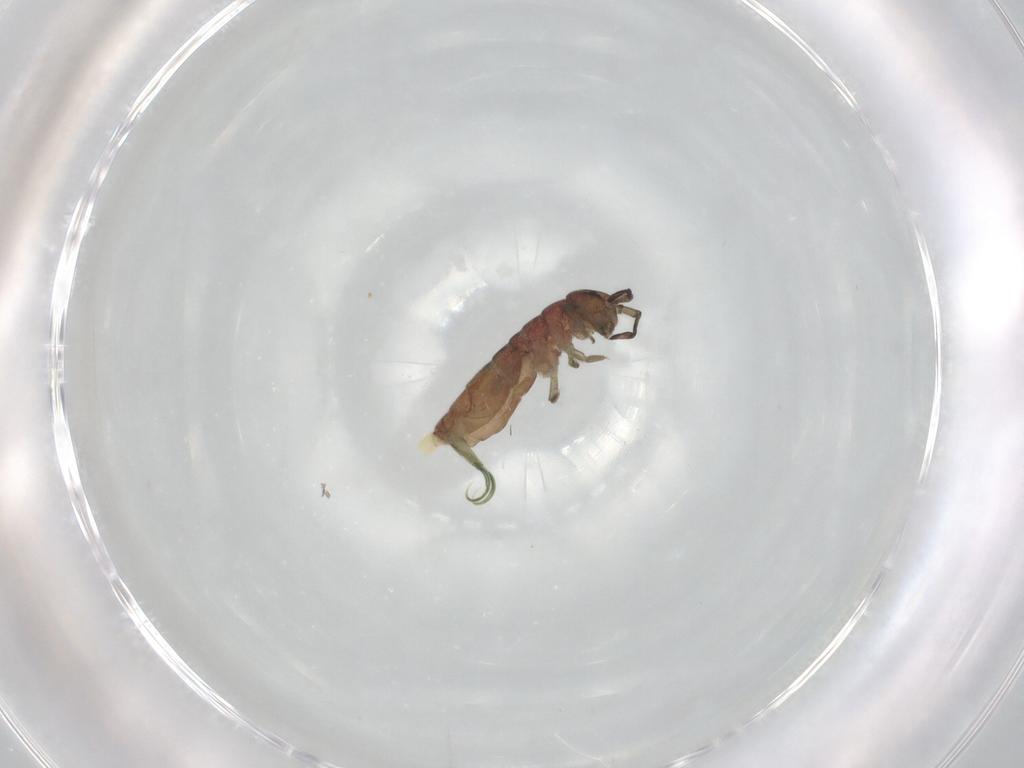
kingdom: Animalia
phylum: Arthropoda
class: Collembola
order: Entomobryomorpha
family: Isotomidae
